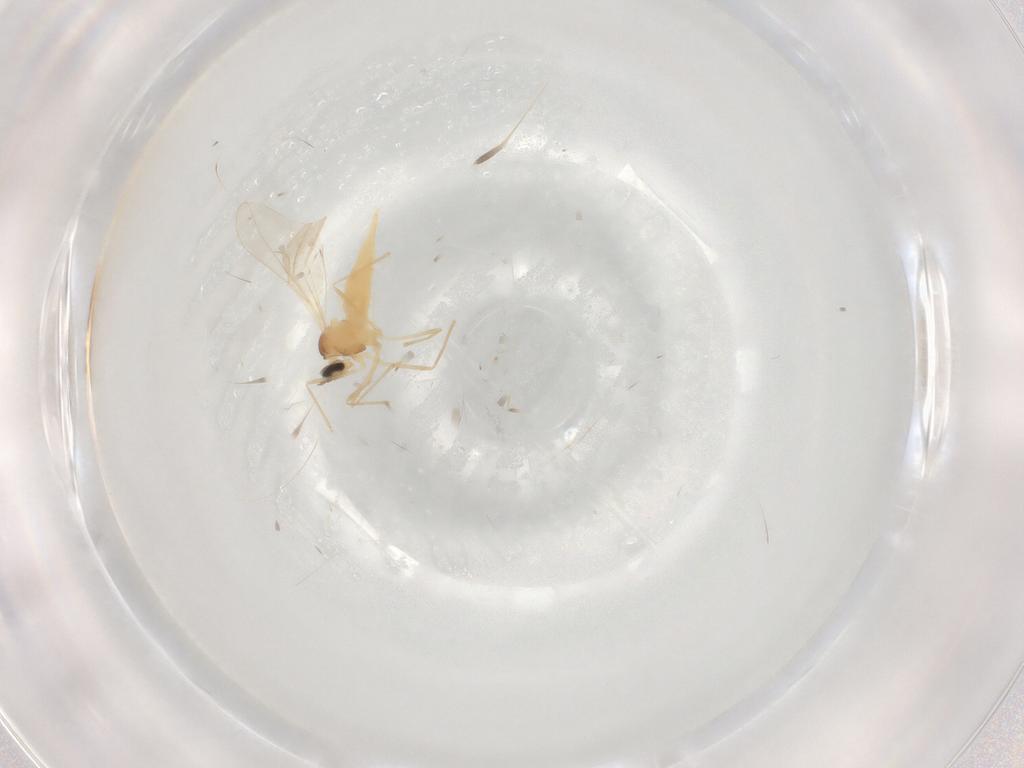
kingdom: Animalia
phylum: Arthropoda
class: Insecta
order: Diptera
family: Cecidomyiidae
